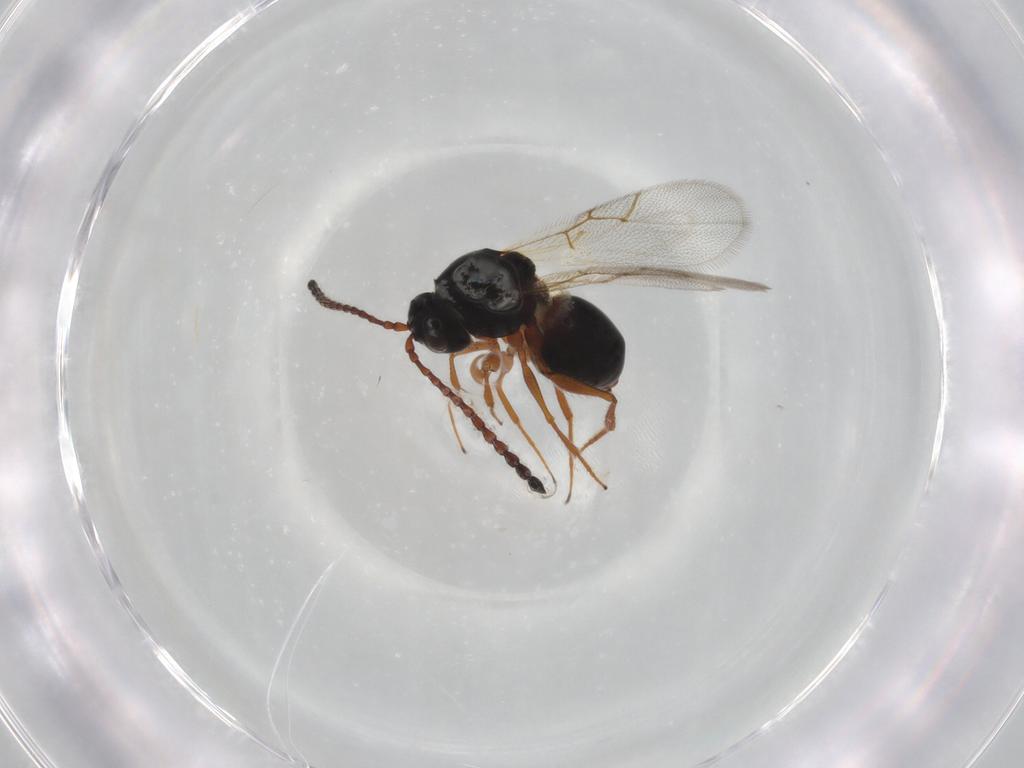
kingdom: Animalia
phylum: Arthropoda
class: Insecta
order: Hymenoptera
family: Figitidae
